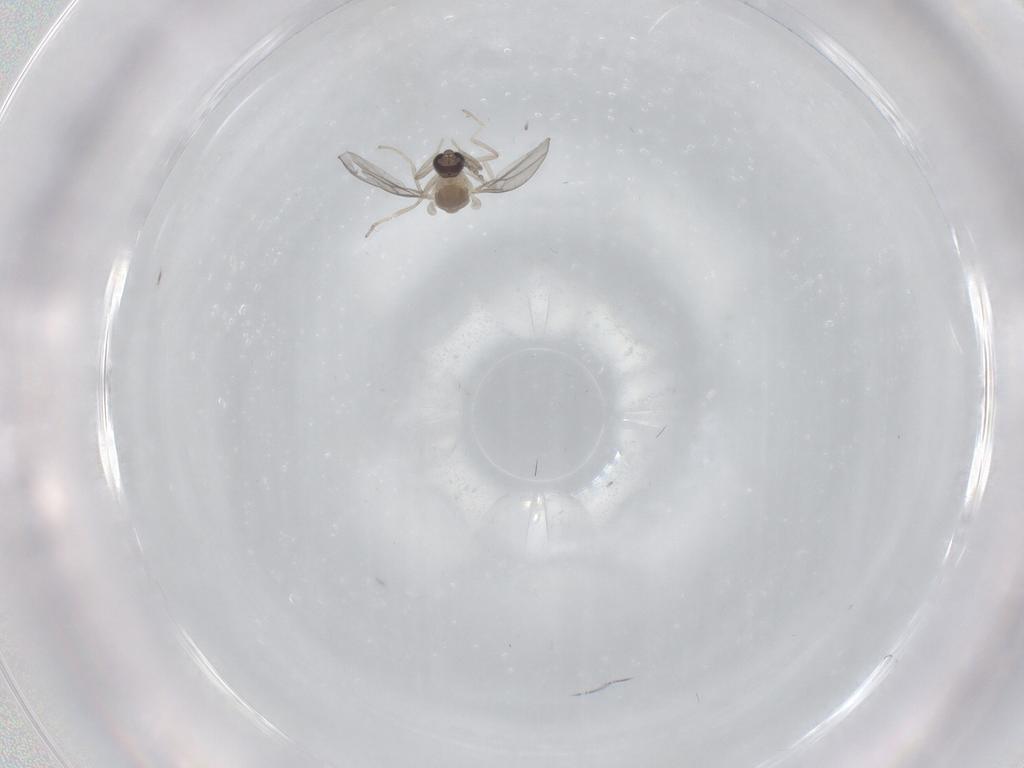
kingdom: Animalia
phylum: Arthropoda
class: Insecta
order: Diptera
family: Cecidomyiidae
